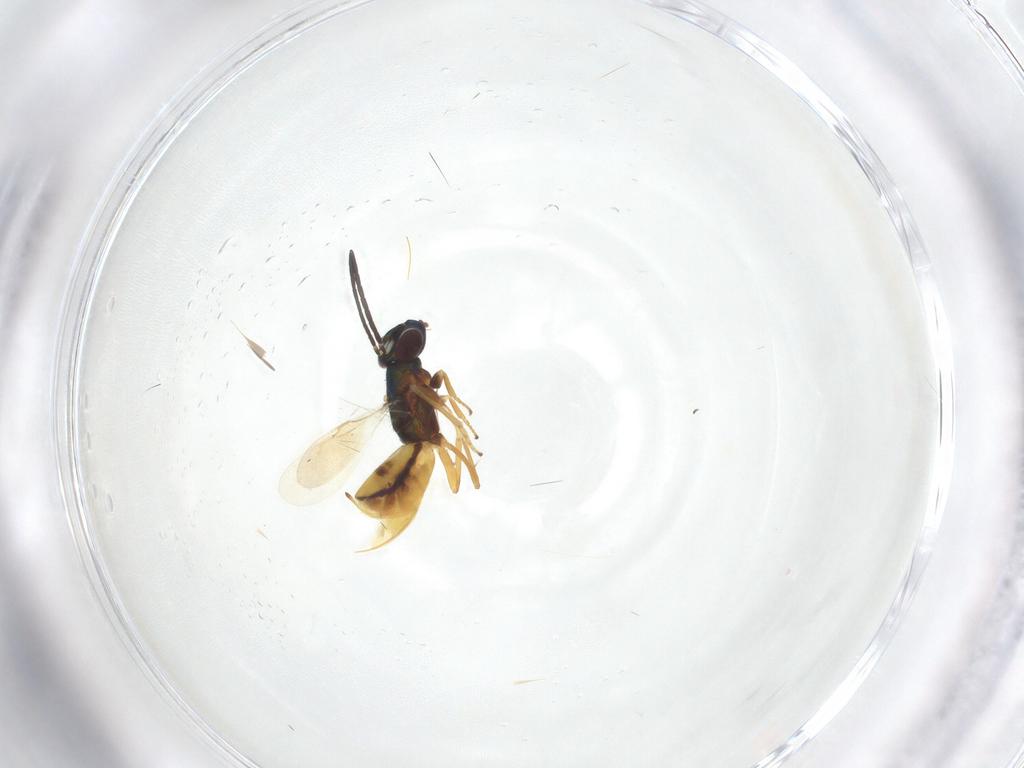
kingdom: Animalia
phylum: Arthropoda
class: Insecta
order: Hymenoptera
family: Encyrtidae
